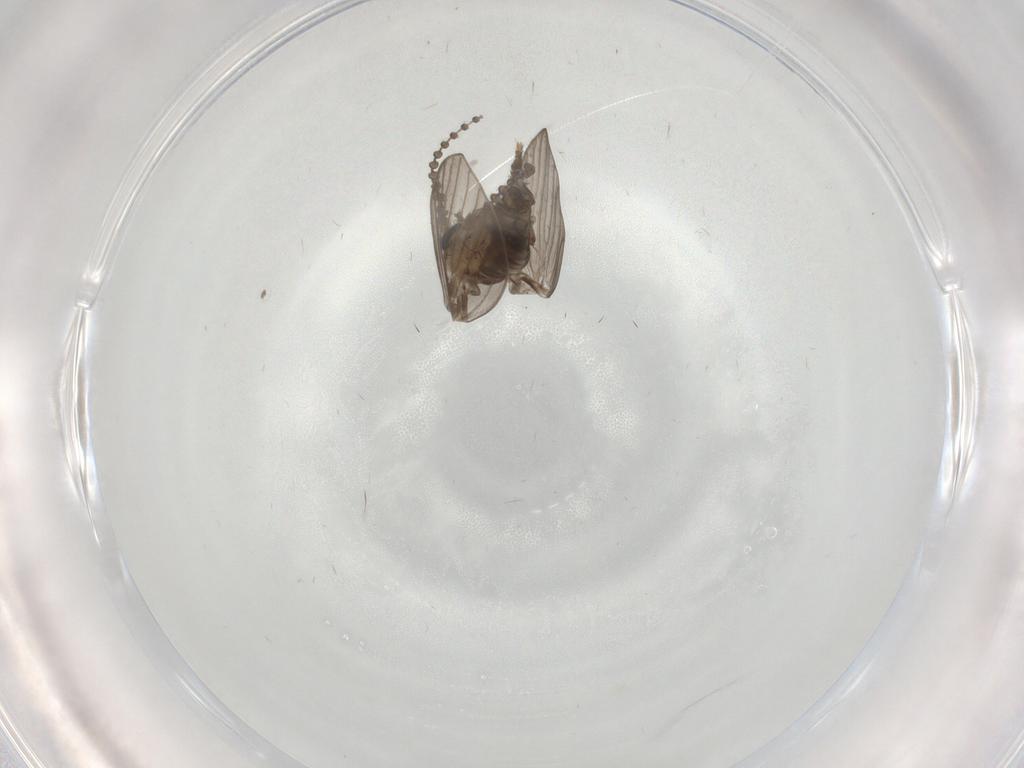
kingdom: Animalia
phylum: Arthropoda
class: Insecta
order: Diptera
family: Psychodidae
